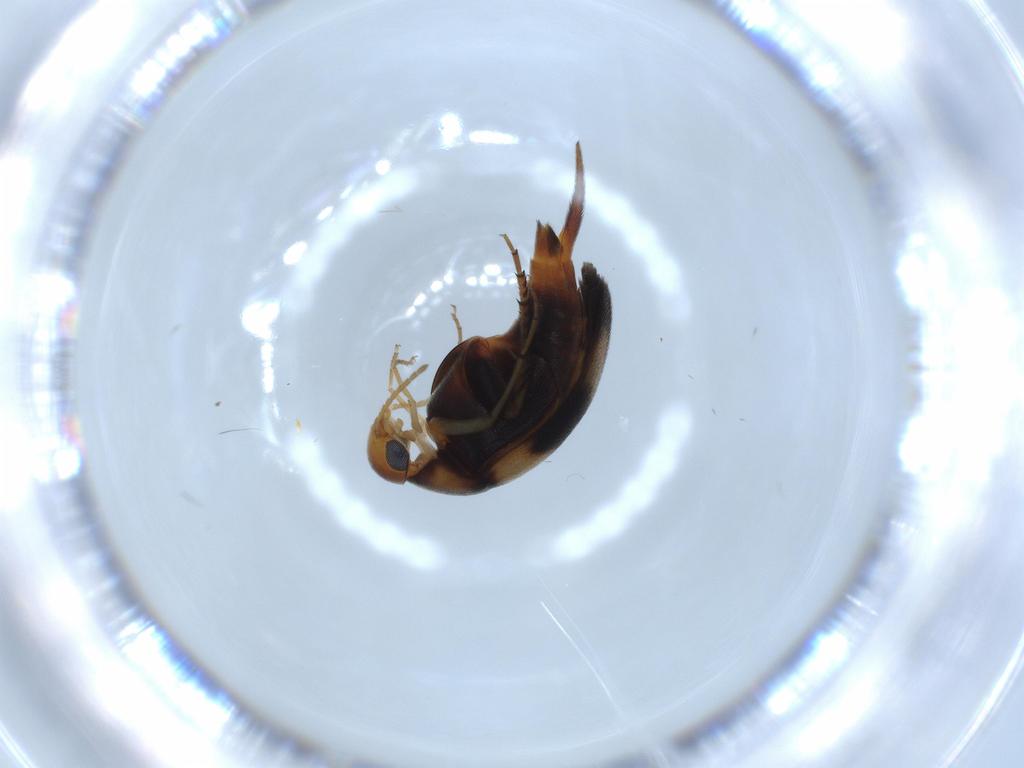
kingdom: Animalia
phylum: Arthropoda
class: Insecta
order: Coleoptera
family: Mordellidae
